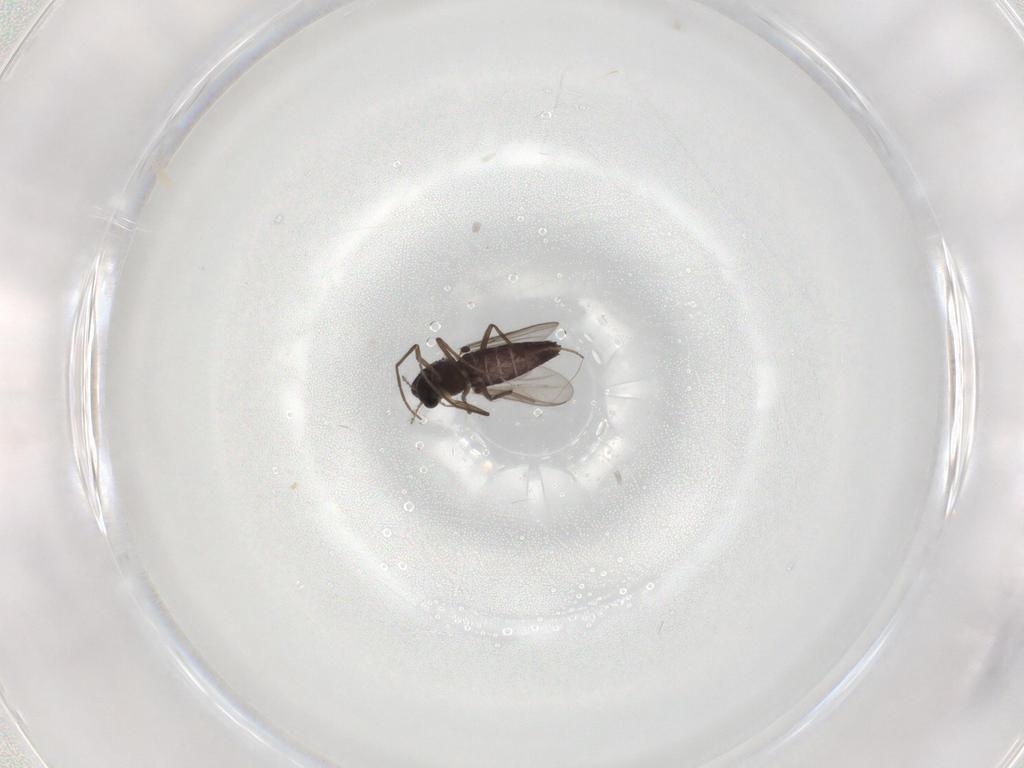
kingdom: Animalia
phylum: Arthropoda
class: Insecta
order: Diptera
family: Chironomidae
